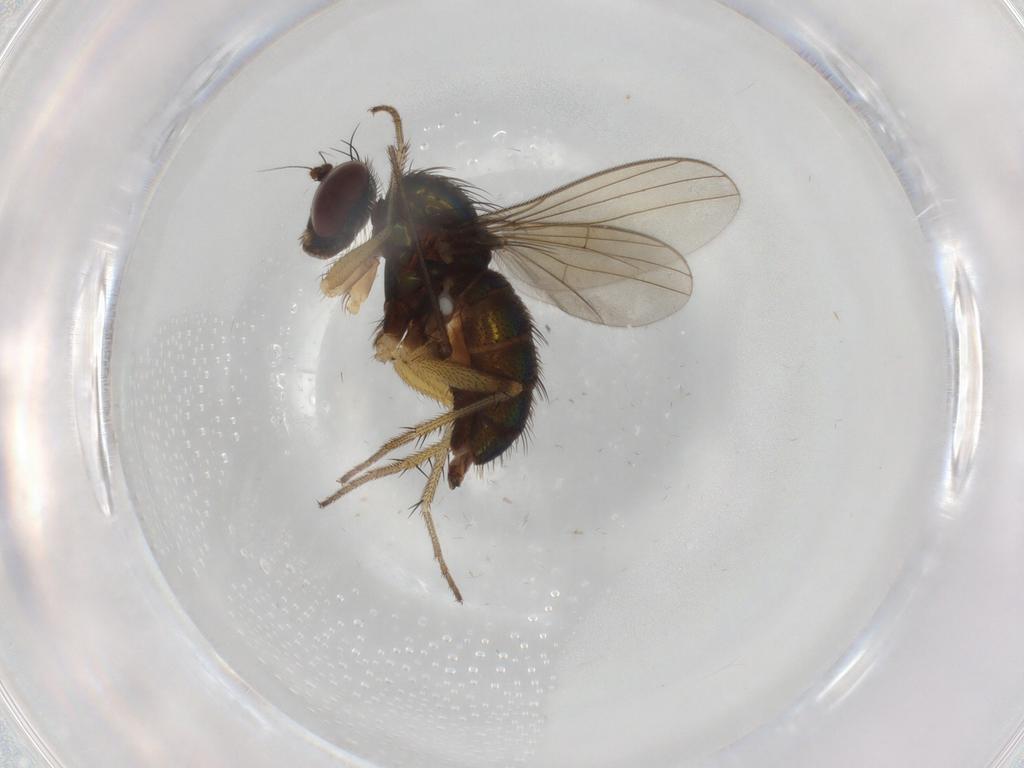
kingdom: Animalia
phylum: Arthropoda
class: Insecta
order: Diptera
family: Dolichopodidae
